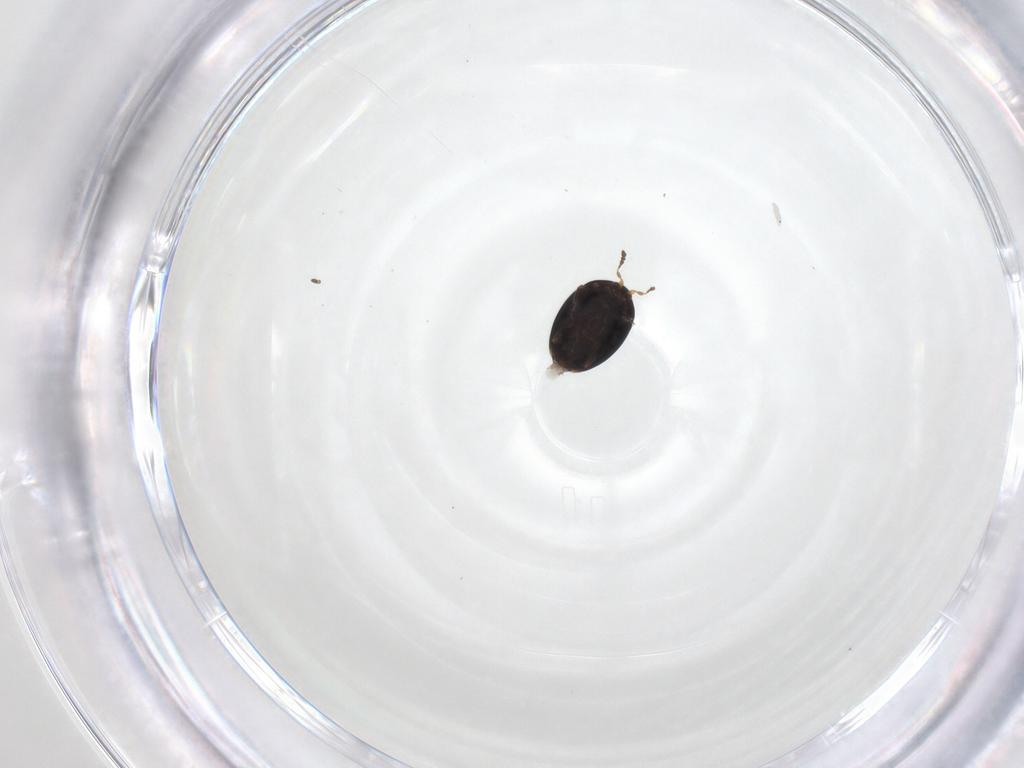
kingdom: Animalia
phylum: Arthropoda
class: Insecta
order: Coleoptera
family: Corylophidae
